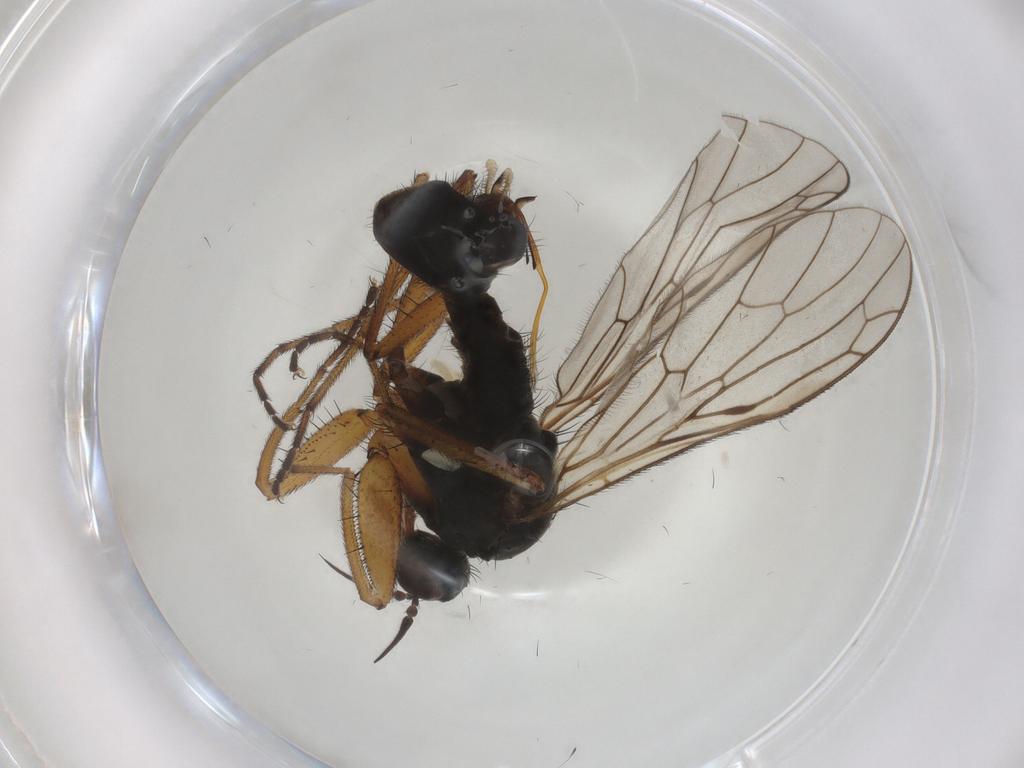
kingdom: Animalia
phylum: Arthropoda
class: Insecta
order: Diptera
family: Empididae
